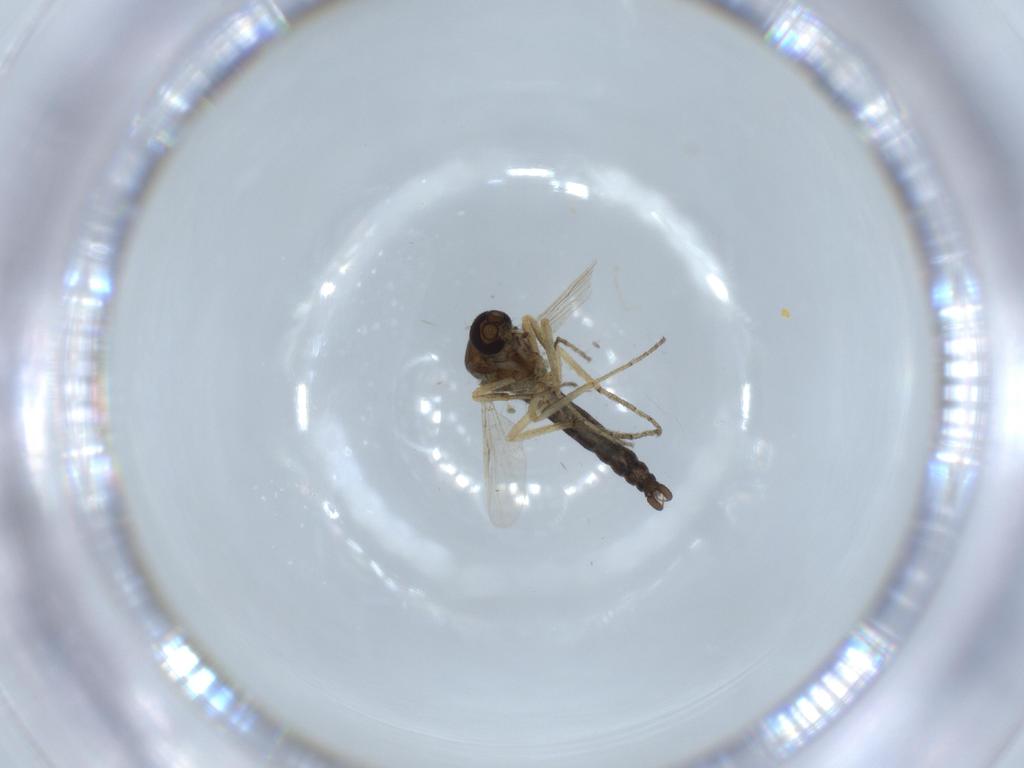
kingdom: Animalia
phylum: Arthropoda
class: Insecta
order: Diptera
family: Ceratopogonidae
